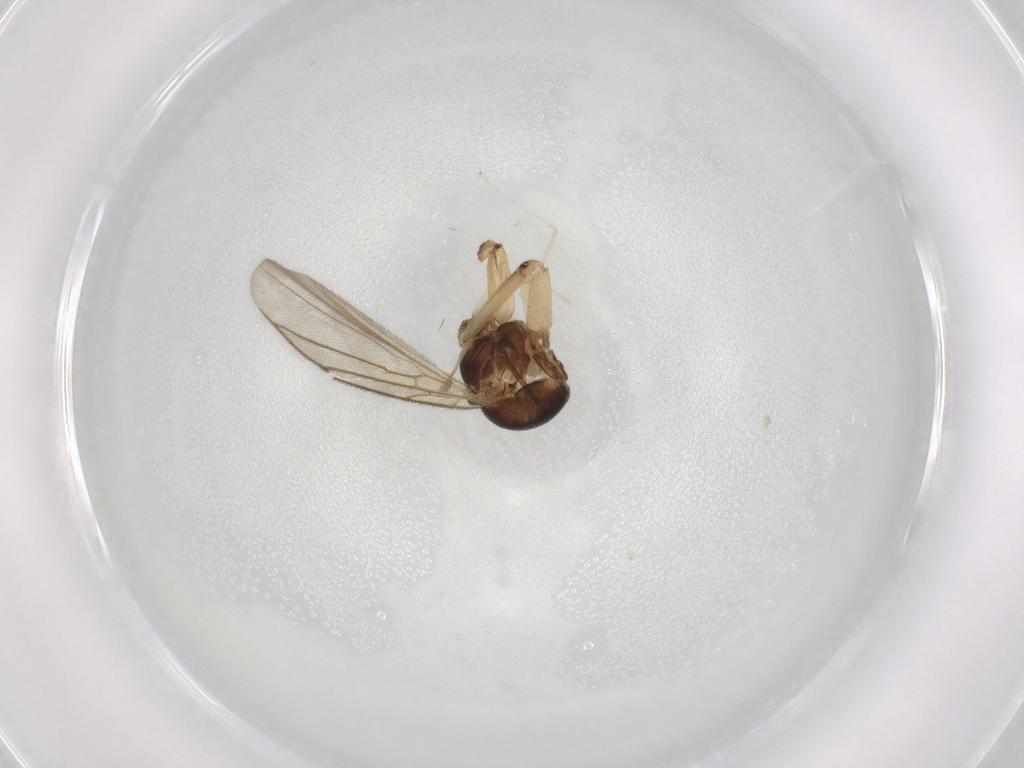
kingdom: Animalia
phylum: Arthropoda
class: Insecta
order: Diptera
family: Mycetophilidae
